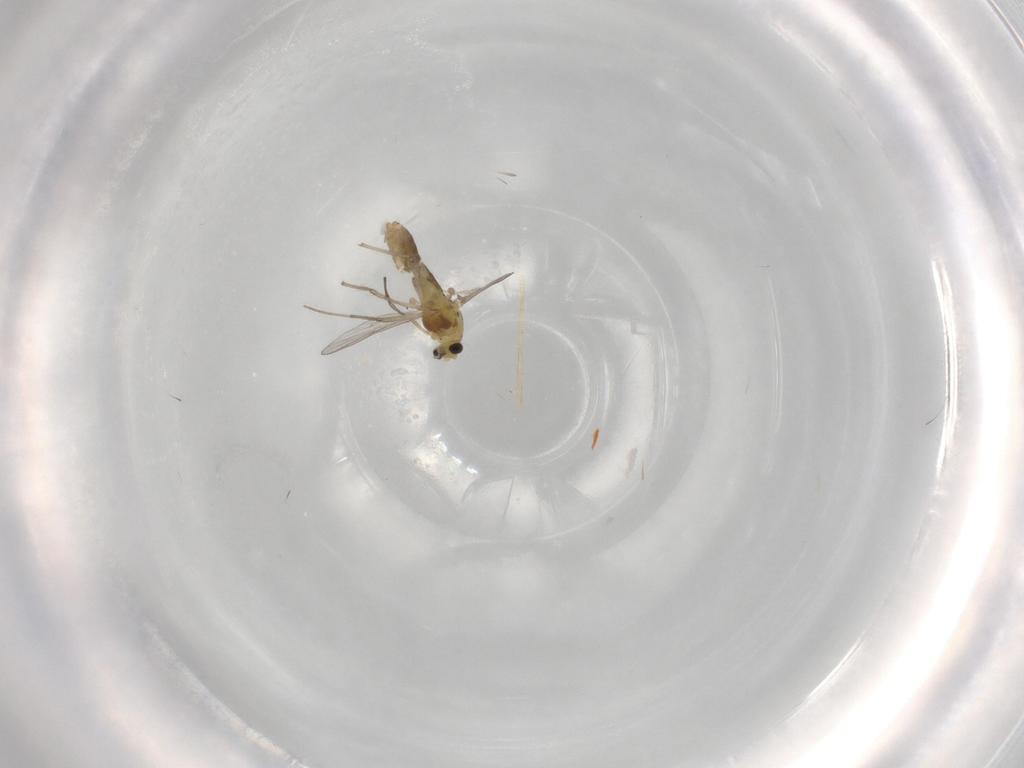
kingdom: Animalia
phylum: Arthropoda
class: Insecta
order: Diptera
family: Chironomidae
